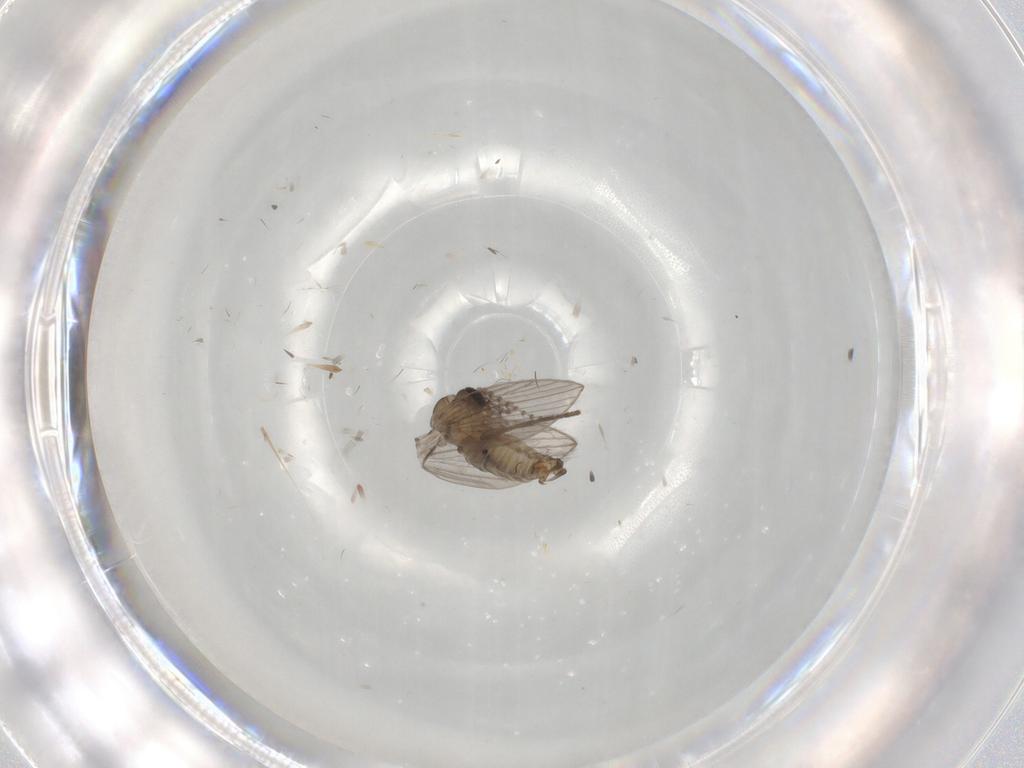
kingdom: Animalia
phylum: Arthropoda
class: Insecta
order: Diptera
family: Psychodidae
